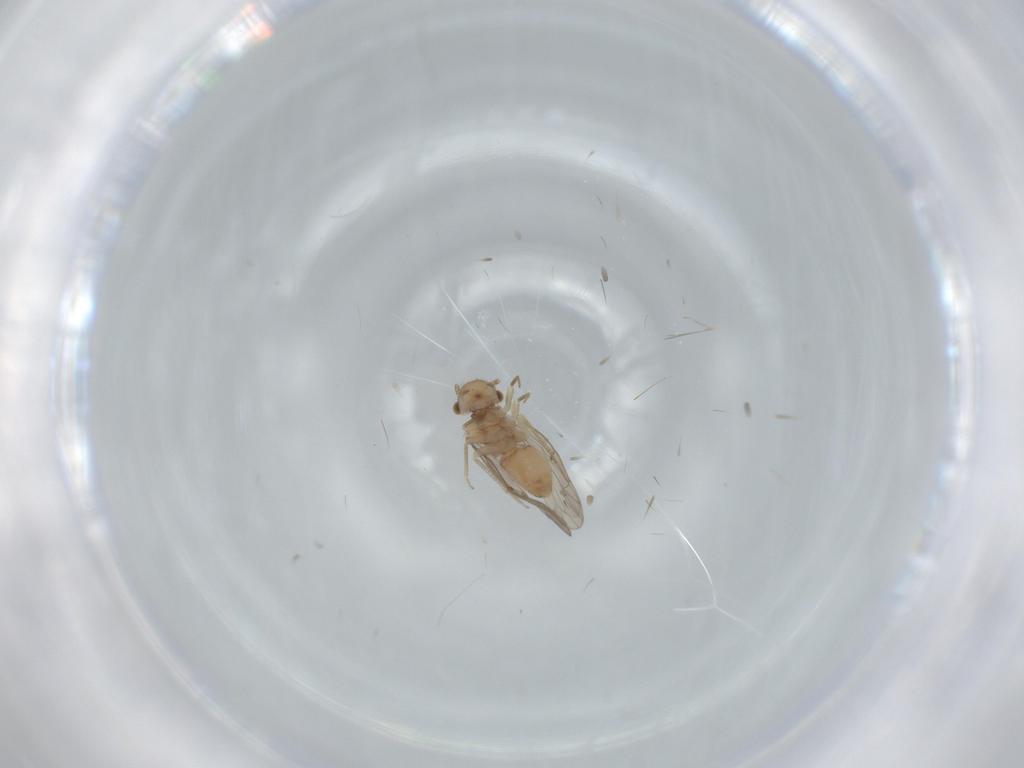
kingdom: Animalia
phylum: Arthropoda
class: Insecta
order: Psocodea
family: Ectopsocidae
